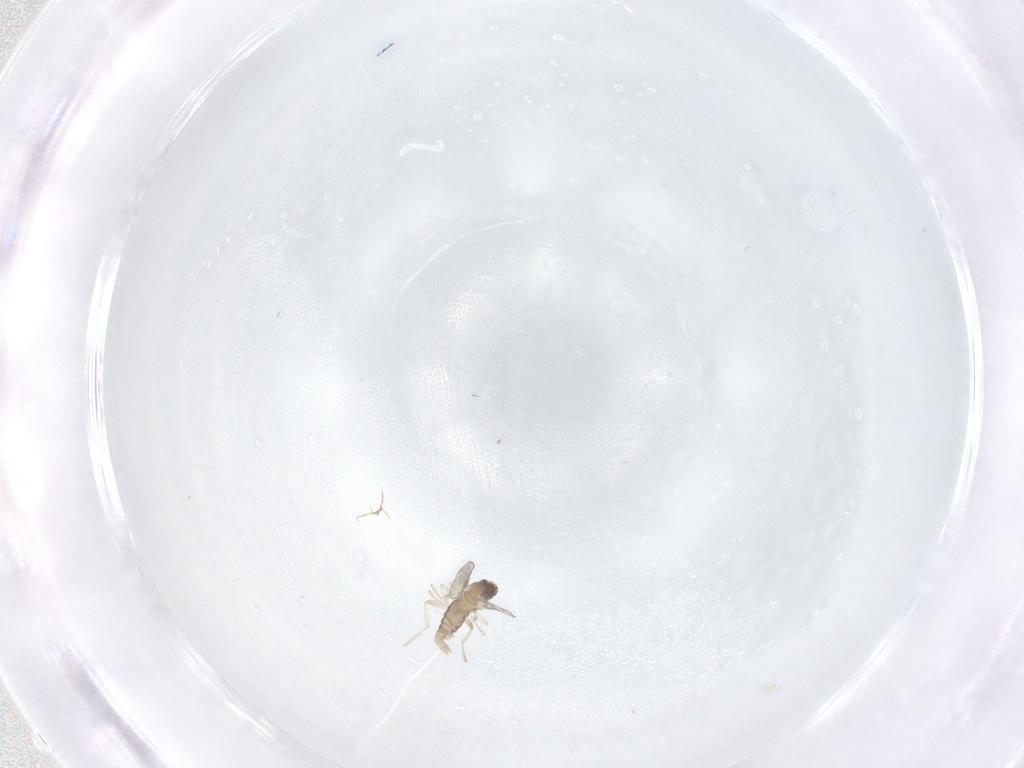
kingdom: Animalia
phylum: Arthropoda
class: Insecta
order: Diptera
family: Cecidomyiidae
